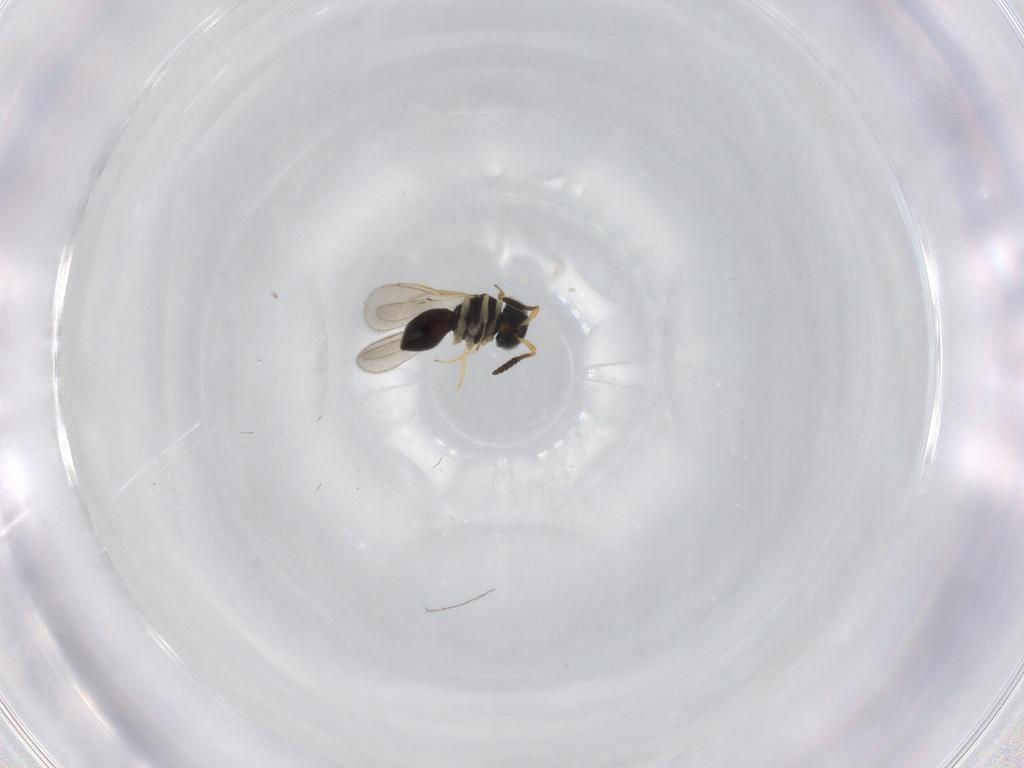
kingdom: Animalia
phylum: Arthropoda
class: Insecta
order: Hymenoptera
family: Scelionidae
